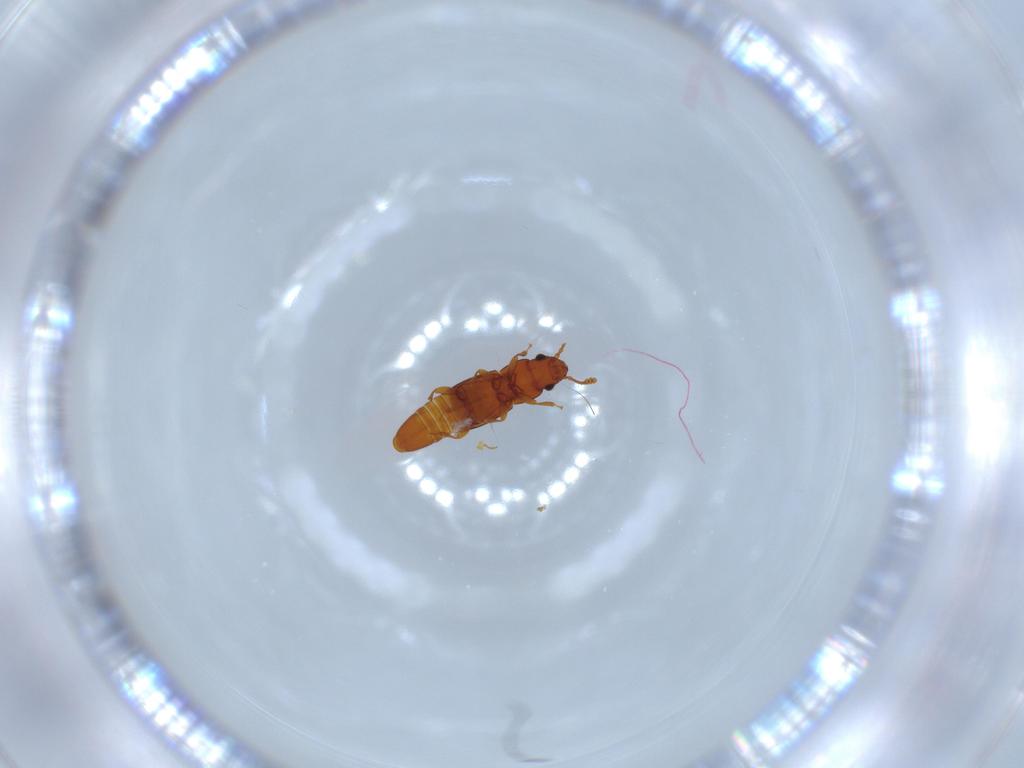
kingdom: Animalia
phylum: Arthropoda
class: Insecta
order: Coleoptera
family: Smicripidae
